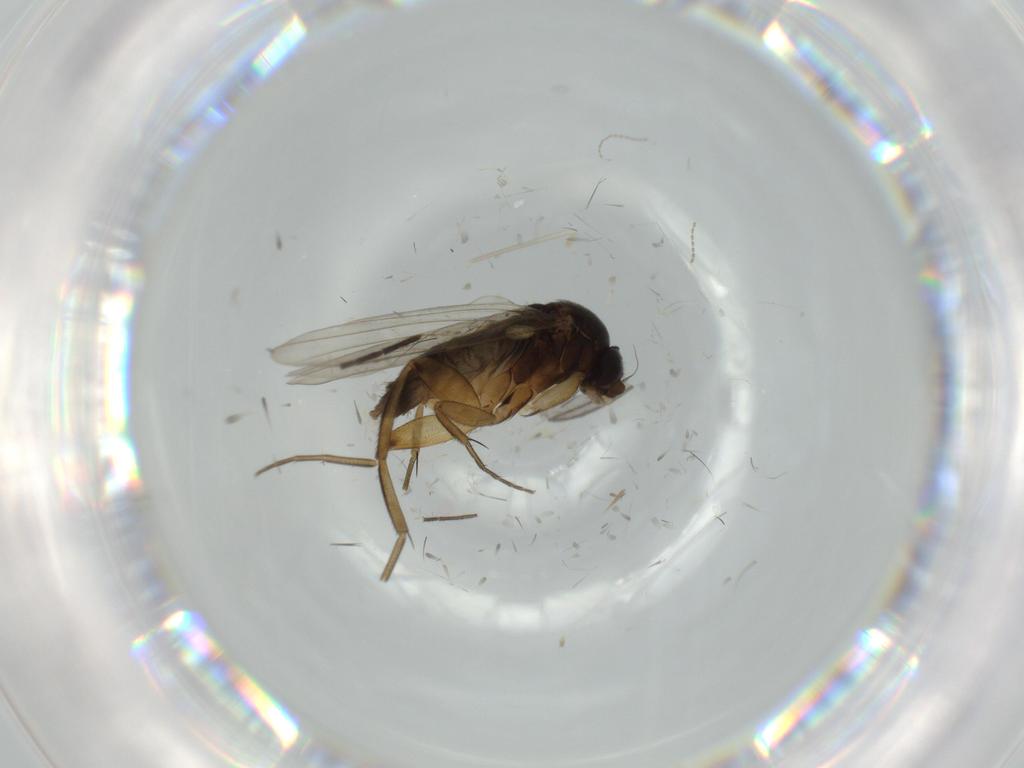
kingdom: Animalia
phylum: Arthropoda
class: Insecta
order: Diptera
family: Phoridae
